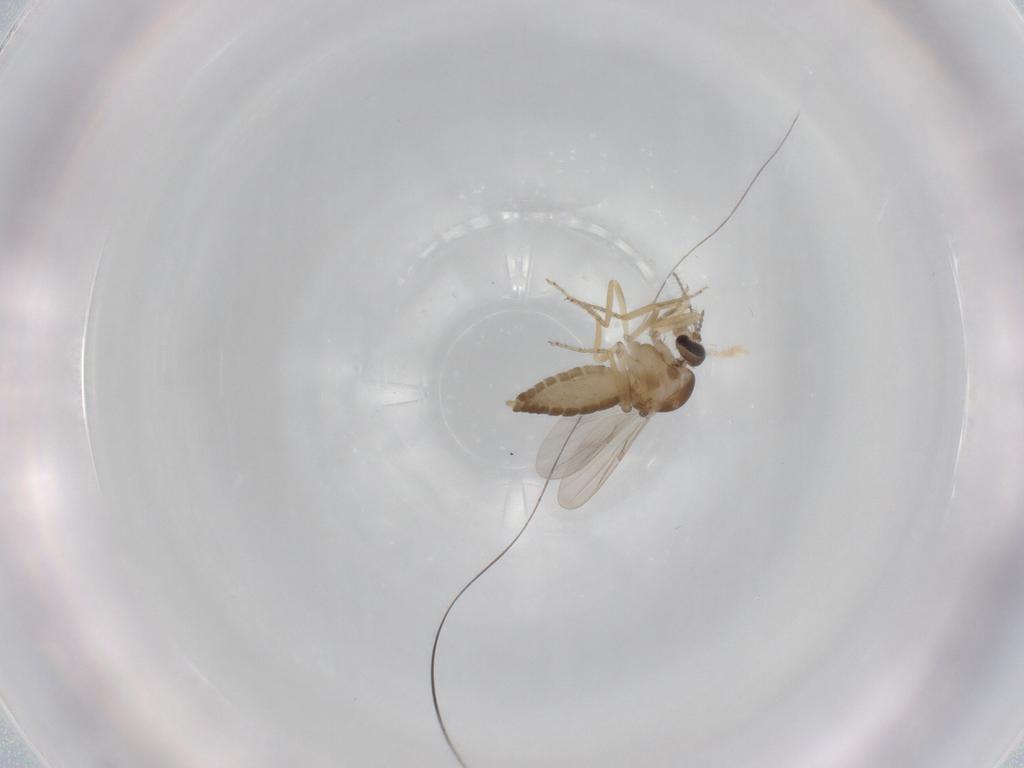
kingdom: Animalia
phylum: Arthropoda
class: Insecta
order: Diptera
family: Ceratopogonidae
